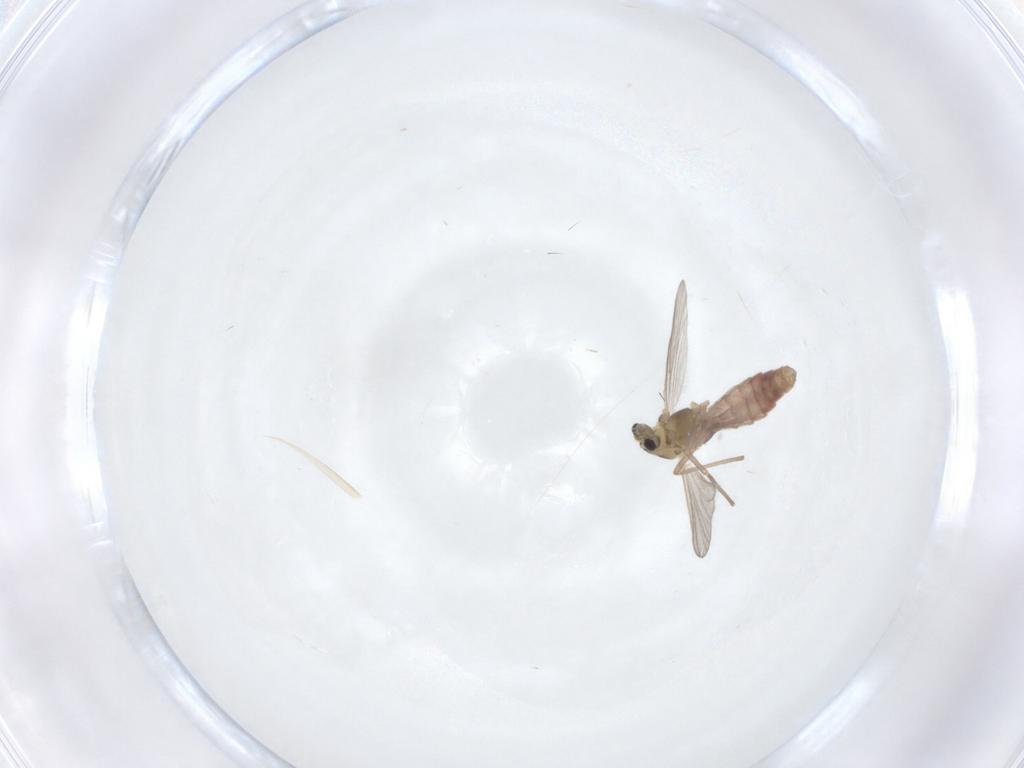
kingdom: Animalia
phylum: Arthropoda
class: Insecta
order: Diptera
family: Chironomidae
